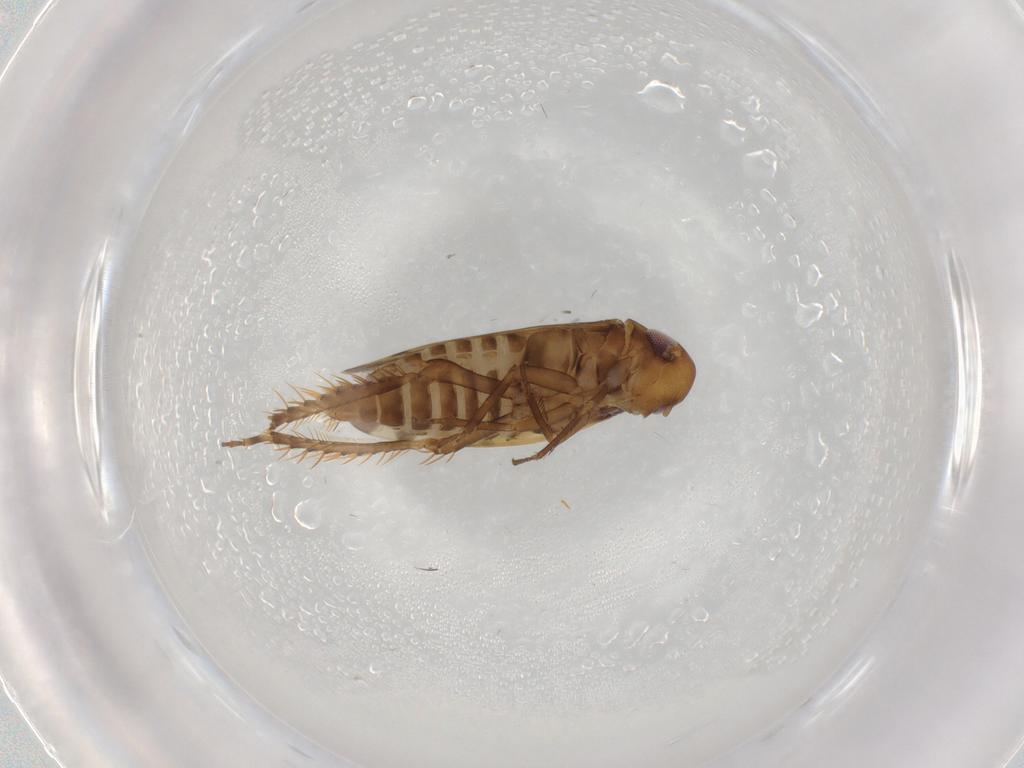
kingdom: Animalia
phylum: Arthropoda
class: Insecta
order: Hemiptera
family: Cicadellidae
